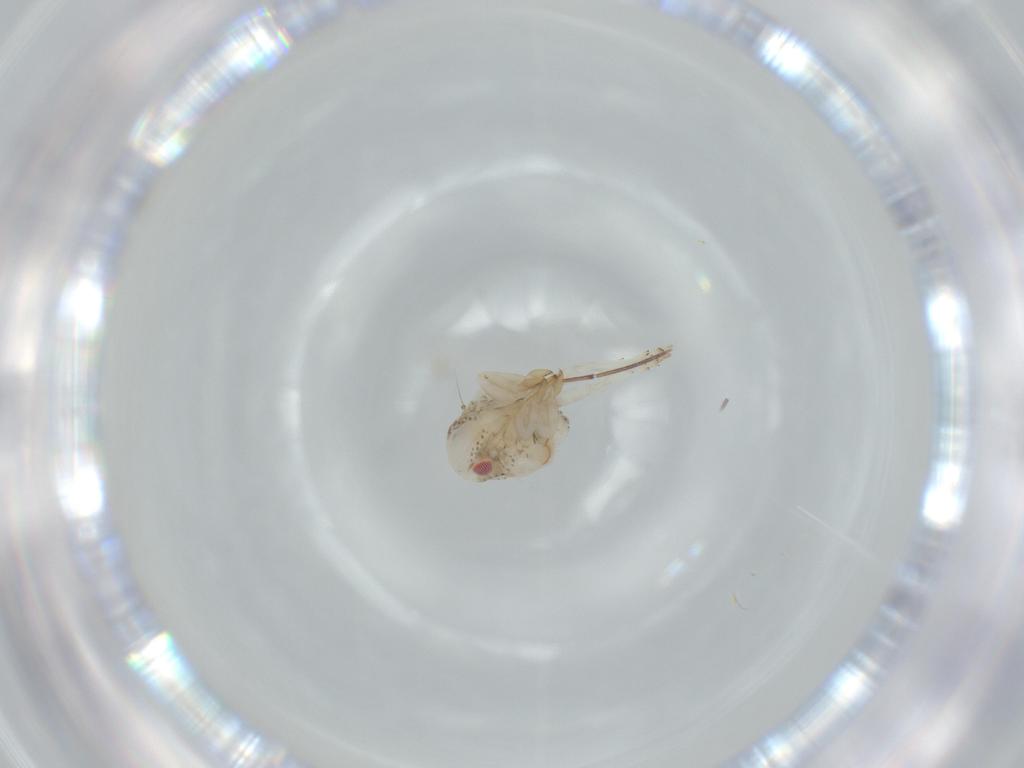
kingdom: Animalia
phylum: Arthropoda
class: Insecta
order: Hemiptera
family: Acanaloniidae
